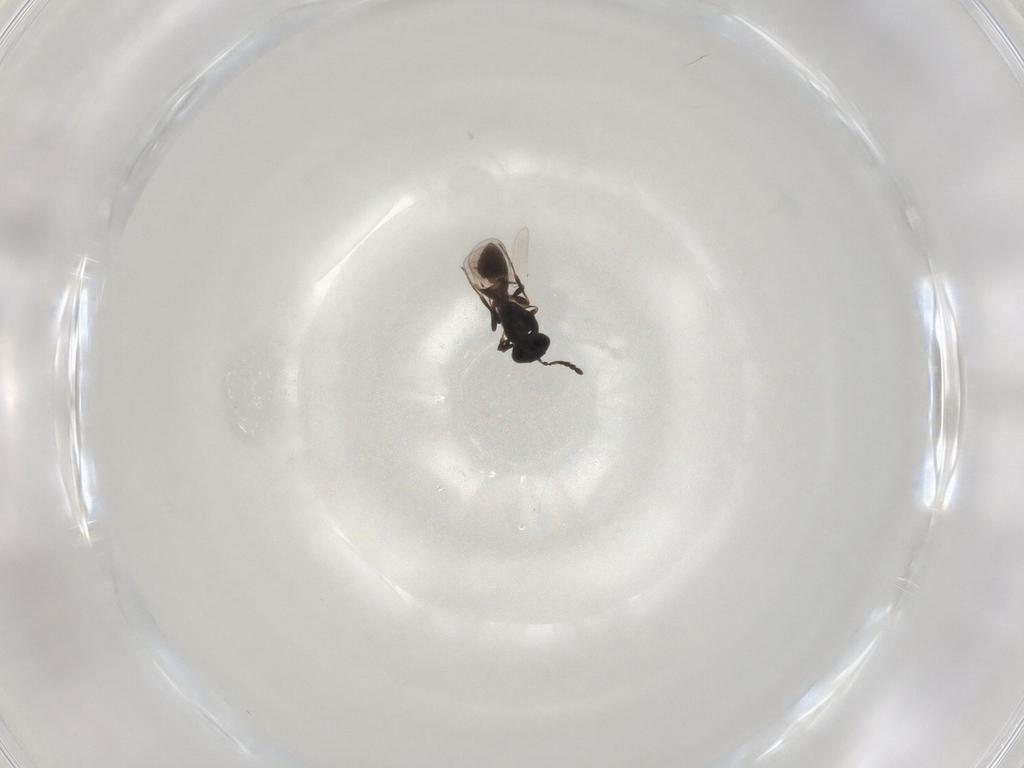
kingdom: Animalia
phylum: Arthropoda
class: Insecta
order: Hymenoptera
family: Platygastridae
